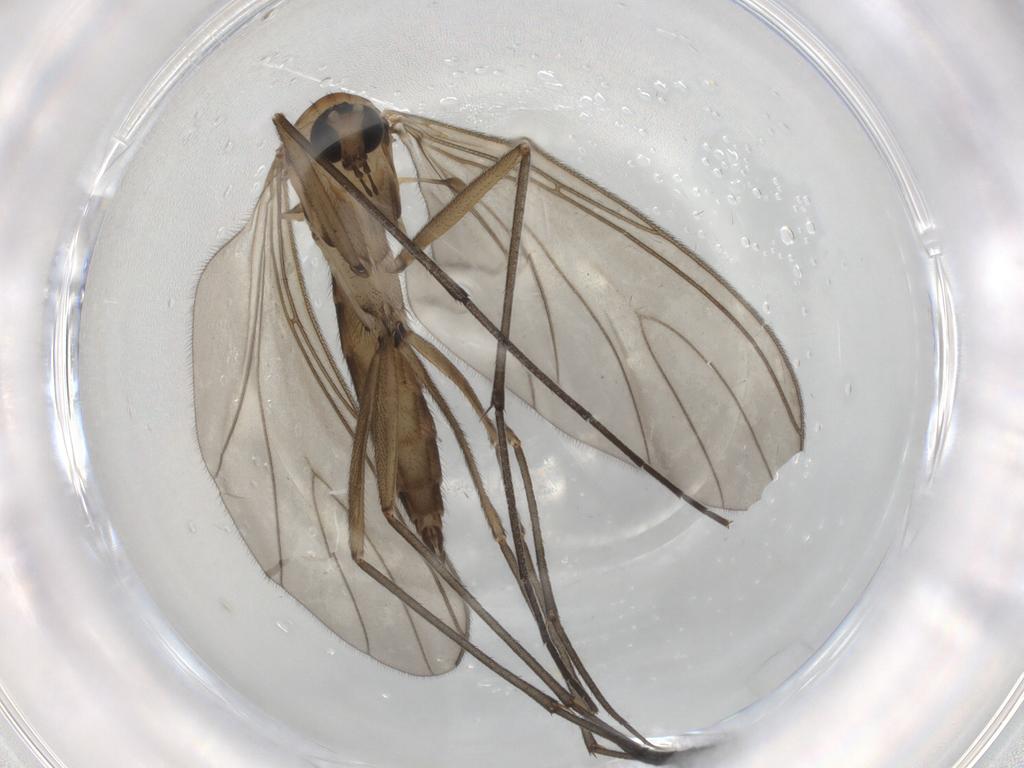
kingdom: Animalia
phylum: Arthropoda
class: Insecta
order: Diptera
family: Sciaridae
